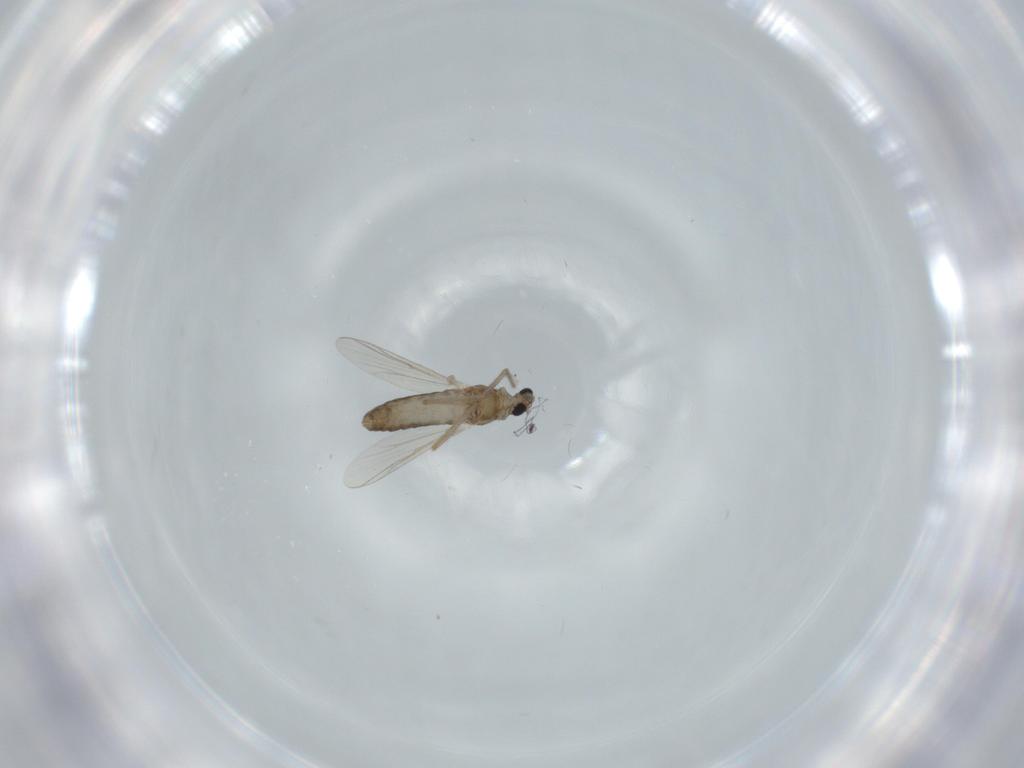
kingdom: Animalia
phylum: Arthropoda
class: Insecta
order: Diptera
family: Chironomidae
